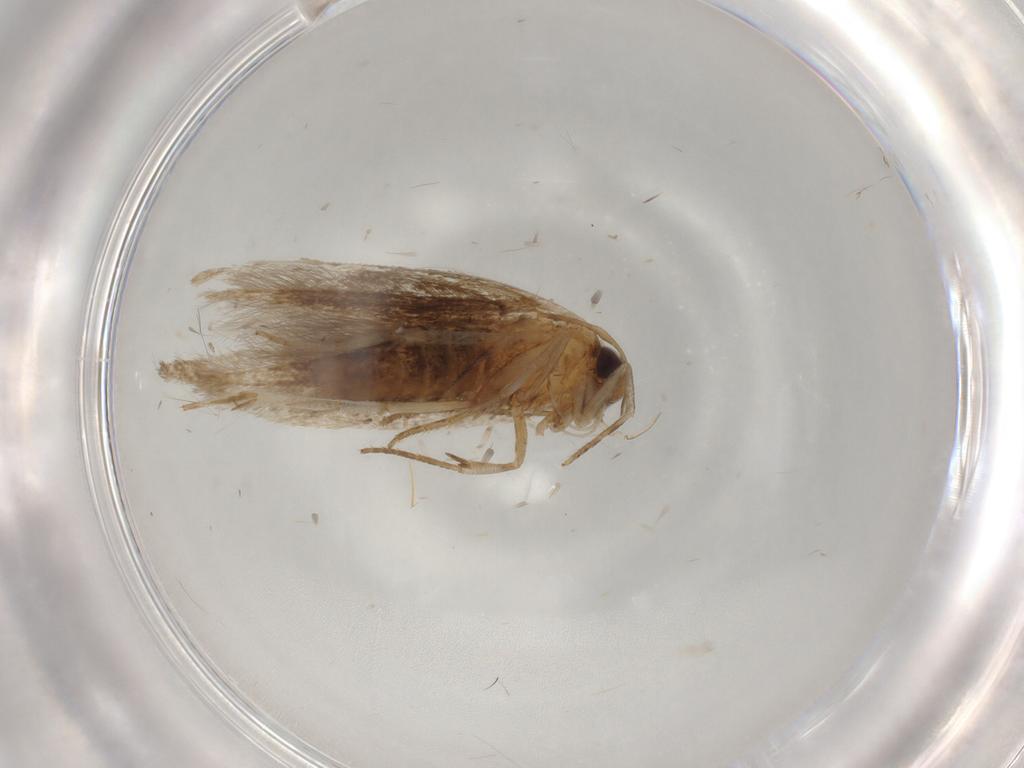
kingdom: Animalia
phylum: Arthropoda
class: Insecta
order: Lepidoptera
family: Cosmopterigidae
